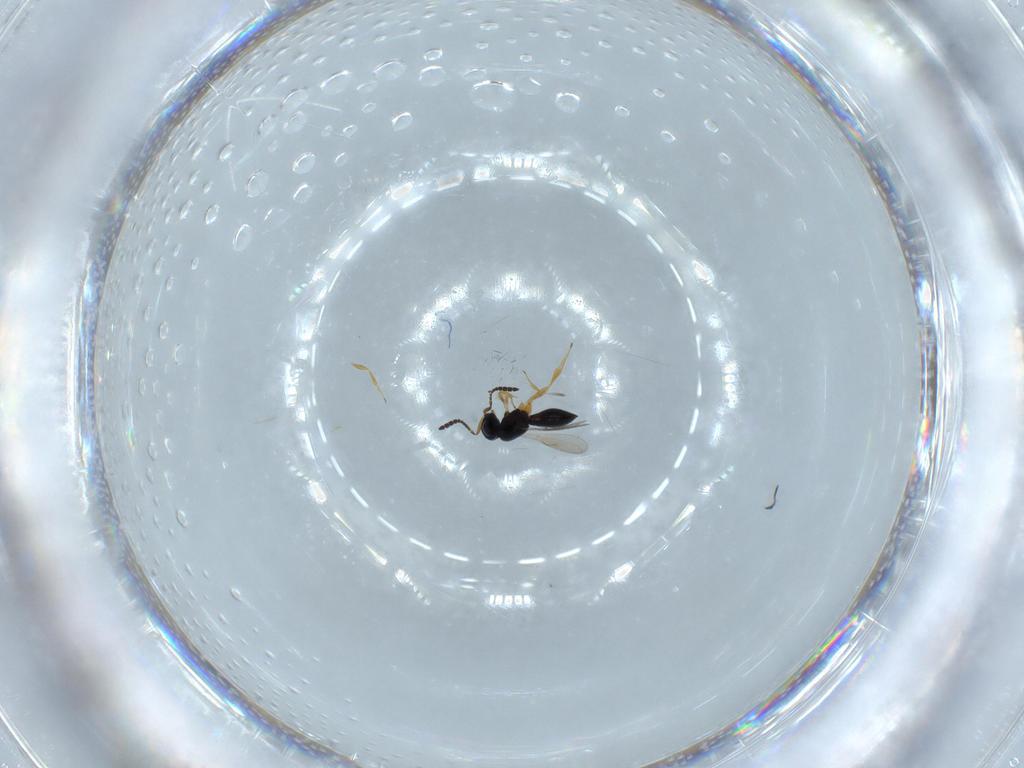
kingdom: Animalia
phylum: Arthropoda
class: Insecta
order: Hymenoptera
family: Scelionidae
